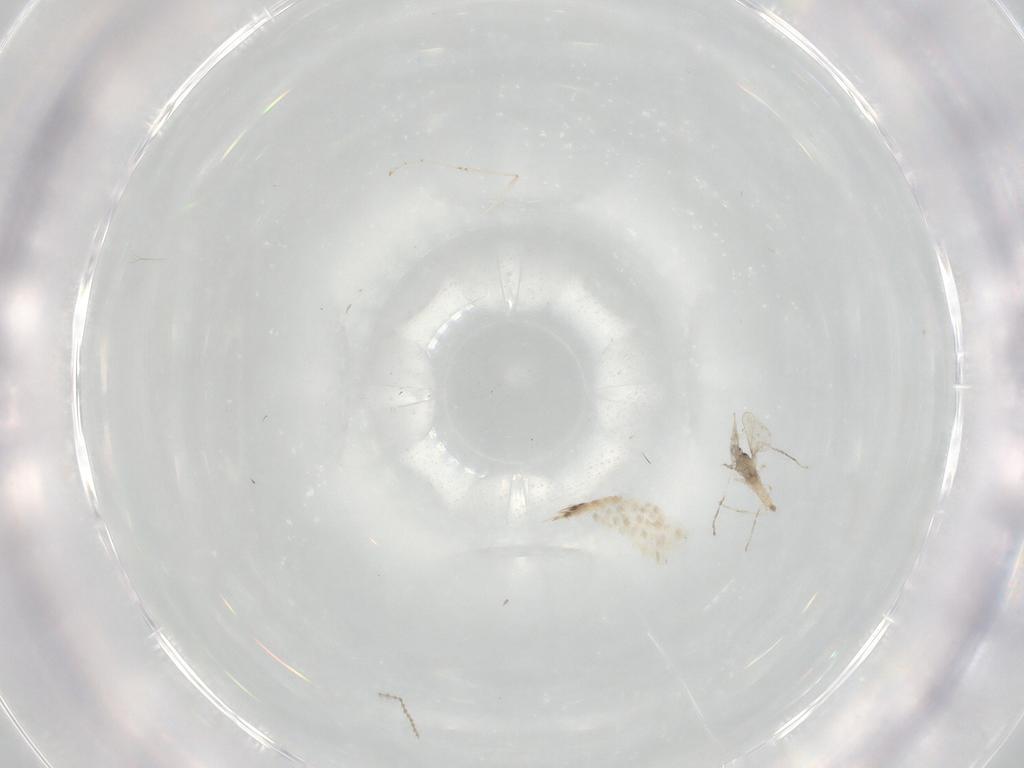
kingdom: Animalia
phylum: Arthropoda
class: Insecta
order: Diptera
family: Cecidomyiidae
